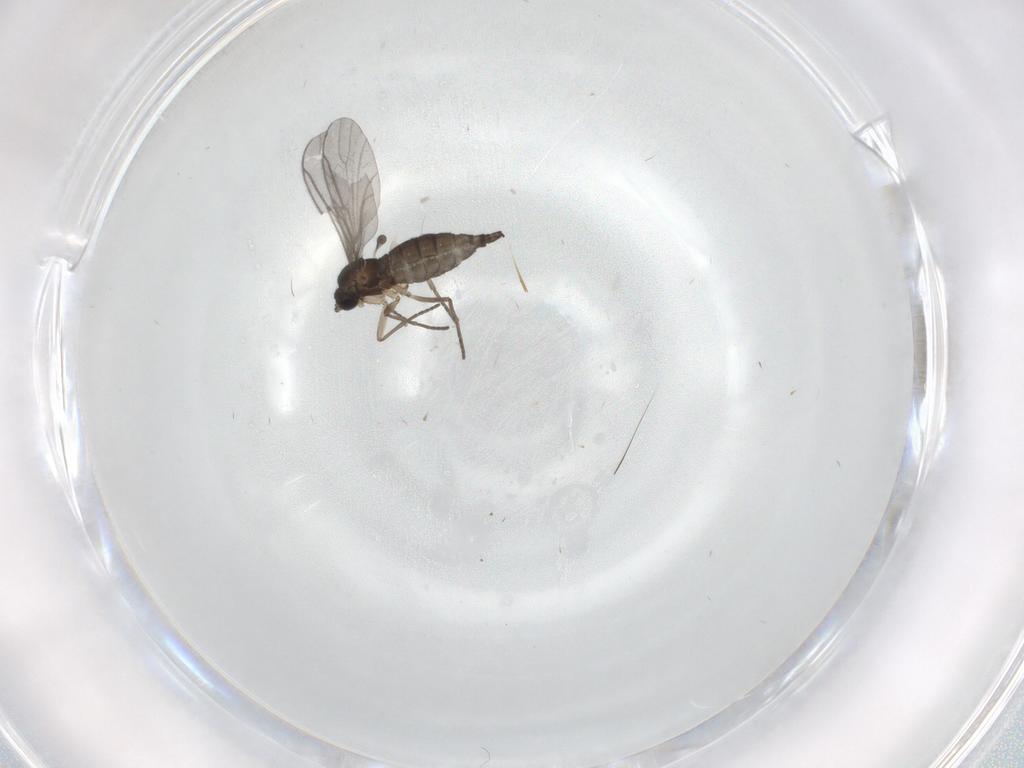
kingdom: Animalia
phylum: Arthropoda
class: Insecta
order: Diptera
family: Sciaridae
